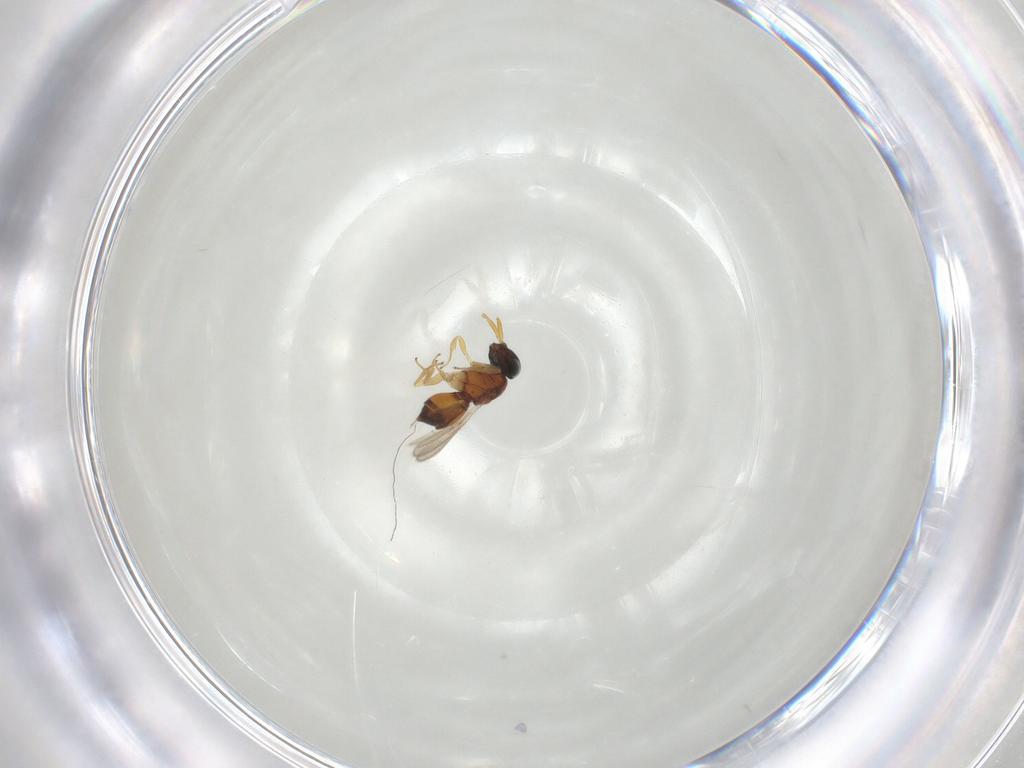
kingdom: Animalia
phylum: Arthropoda
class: Insecta
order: Hymenoptera
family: Scelionidae
